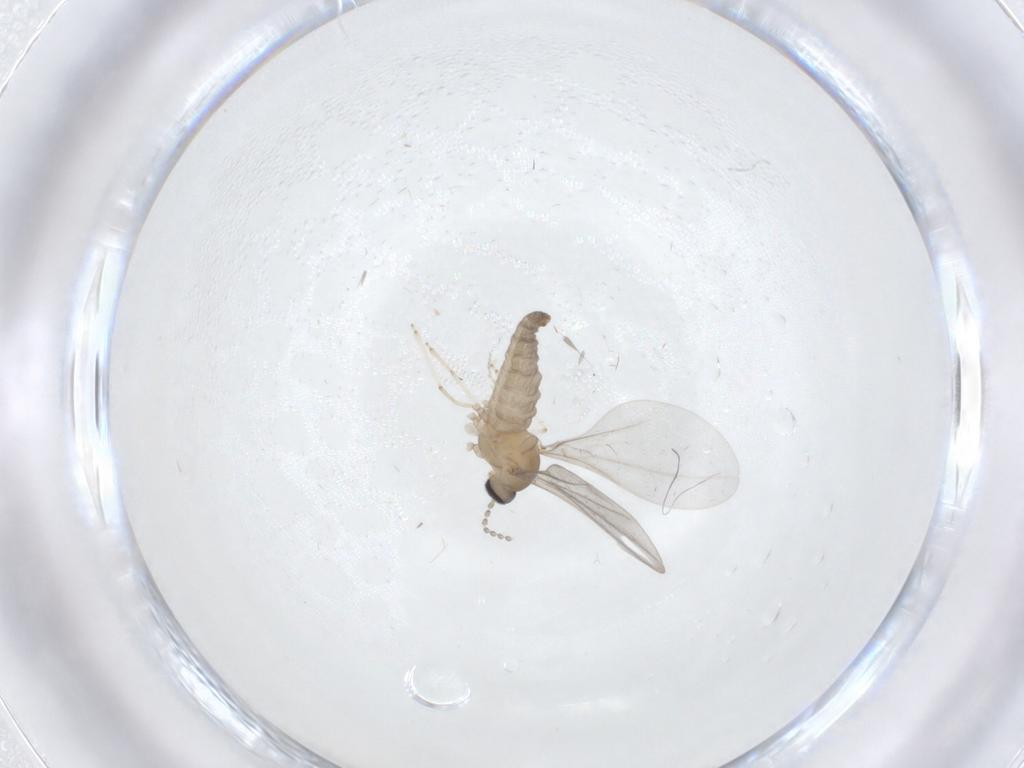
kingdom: Animalia
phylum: Arthropoda
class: Insecta
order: Diptera
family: Cecidomyiidae
